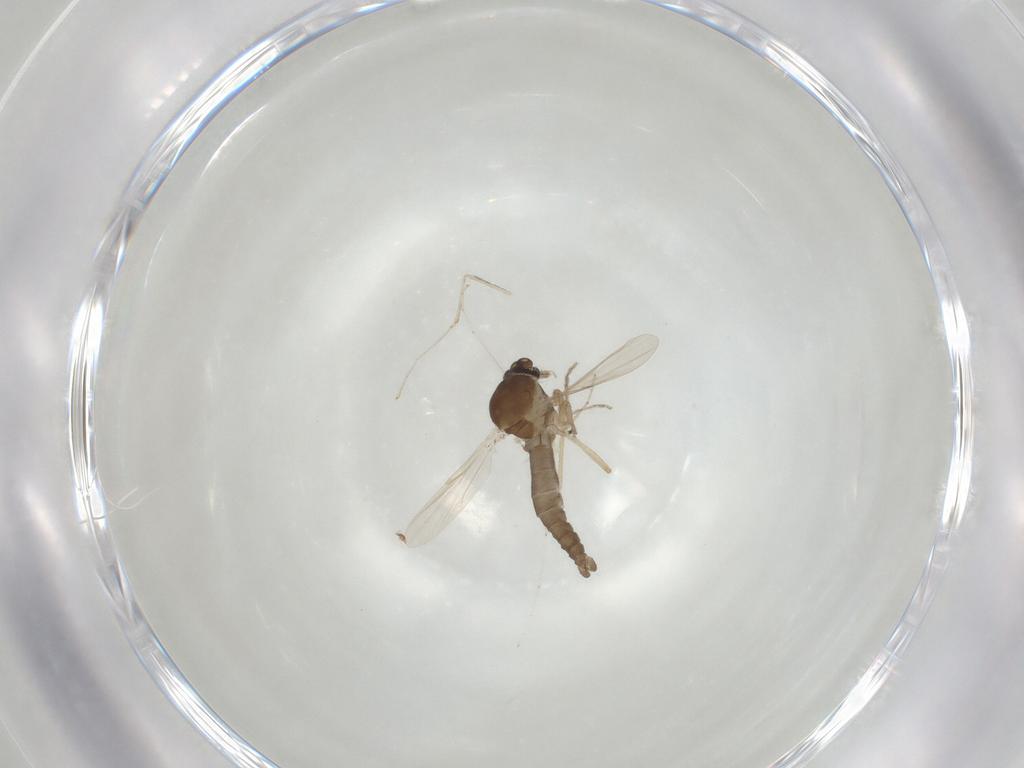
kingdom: Animalia
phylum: Arthropoda
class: Insecta
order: Diptera
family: Ceratopogonidae
